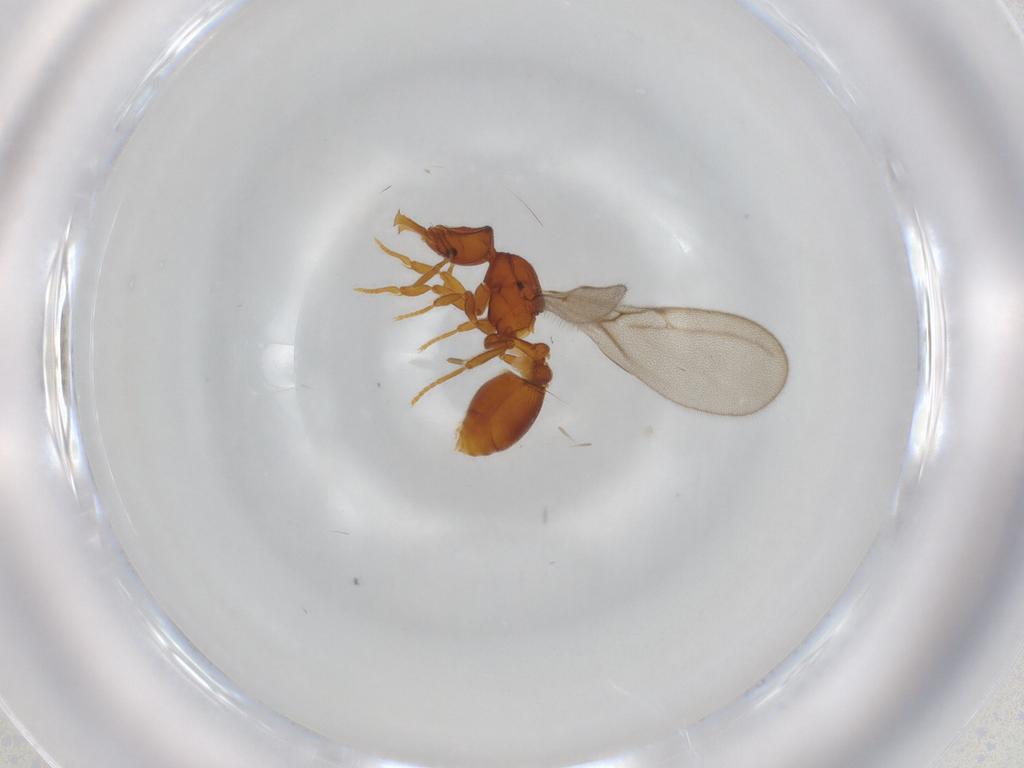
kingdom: Animalia
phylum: Arthropoda
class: Insecta
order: Hymenoptera
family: Formicidae
